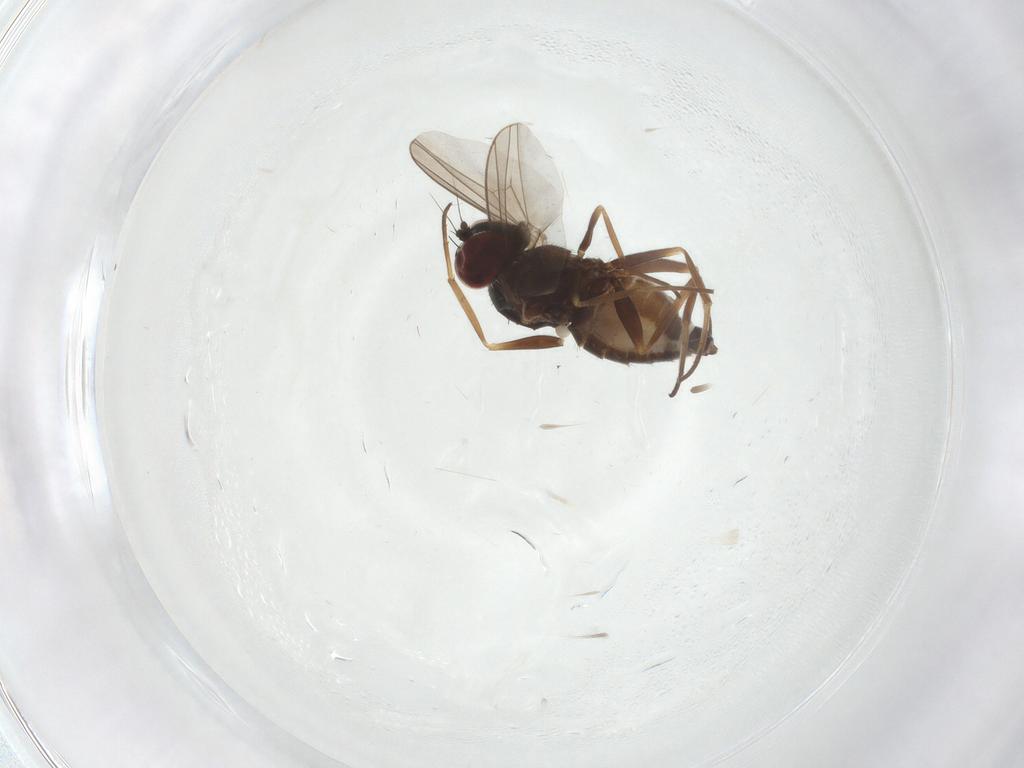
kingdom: Animalia
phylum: Arthropoda
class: Insecta
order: Diptera
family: Dolichopodidae
